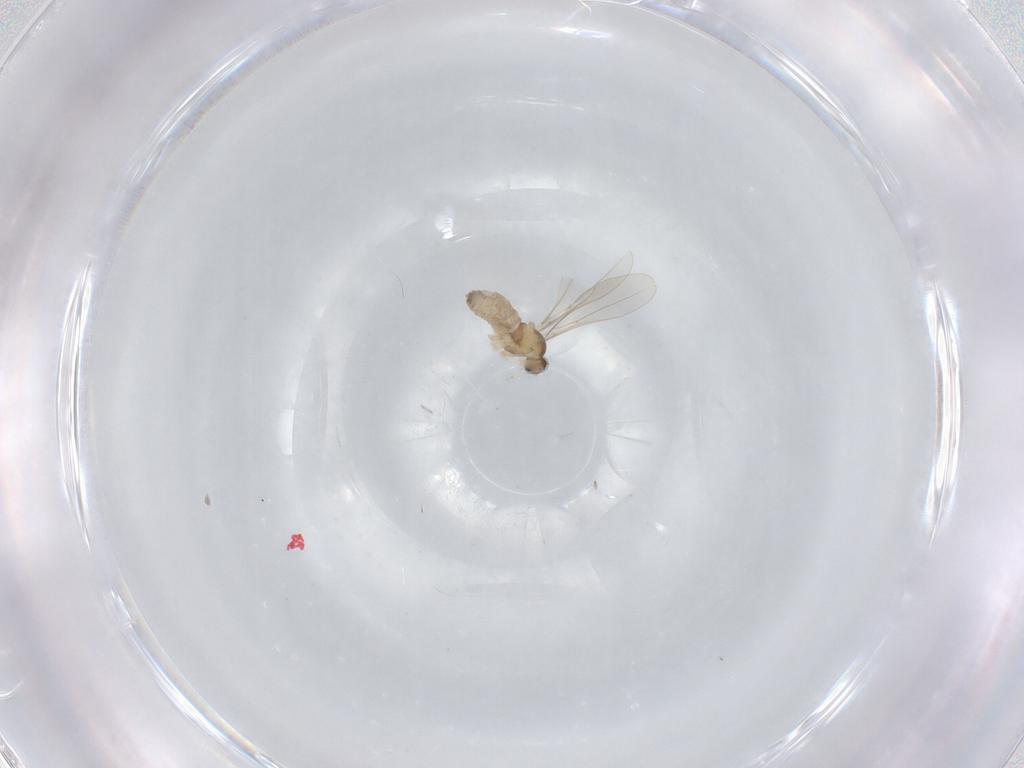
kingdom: Animalia
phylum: Arthropoda
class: Insecta
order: Diptera
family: Cecidomyiidae
